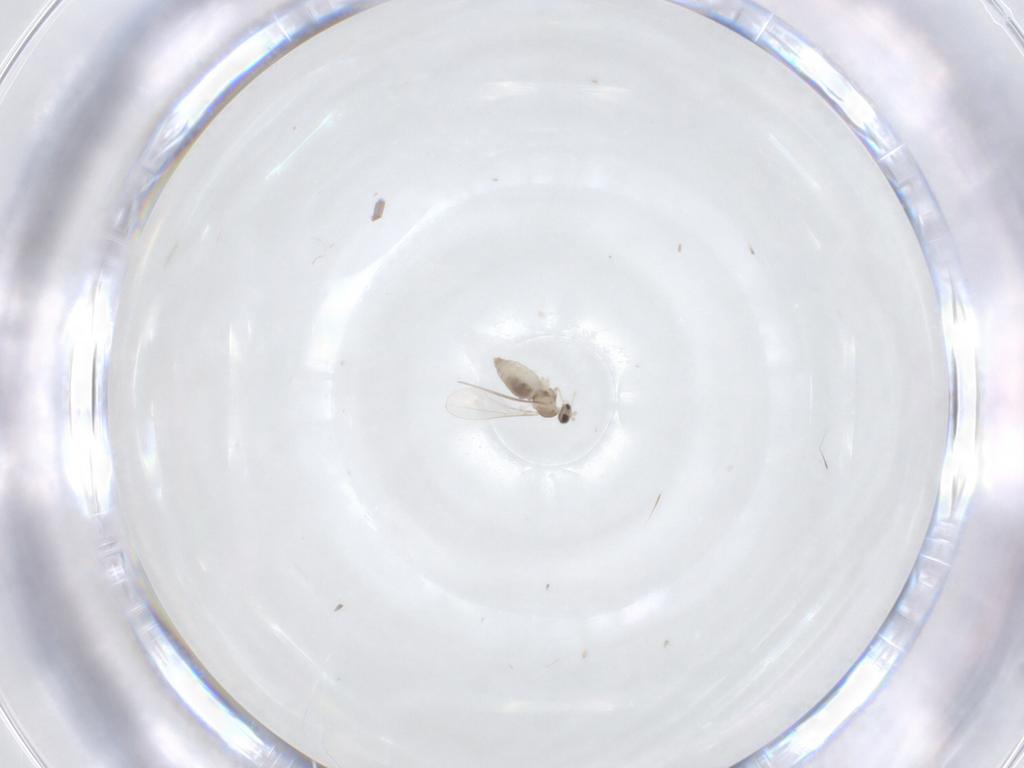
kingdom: Animalia
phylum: Arthropoda
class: Insecta
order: Diptera
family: Cecidomyiidae
